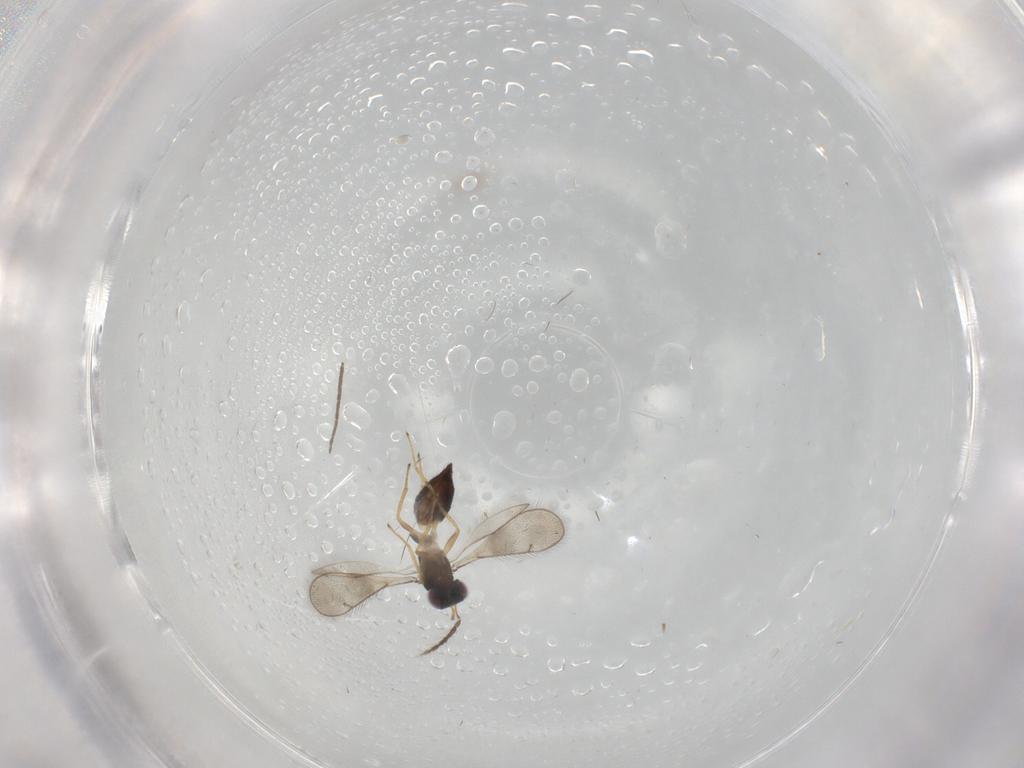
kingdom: Animalia
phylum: Arthropoda
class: Insecta
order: Hymenoptera
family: Eulophidae
